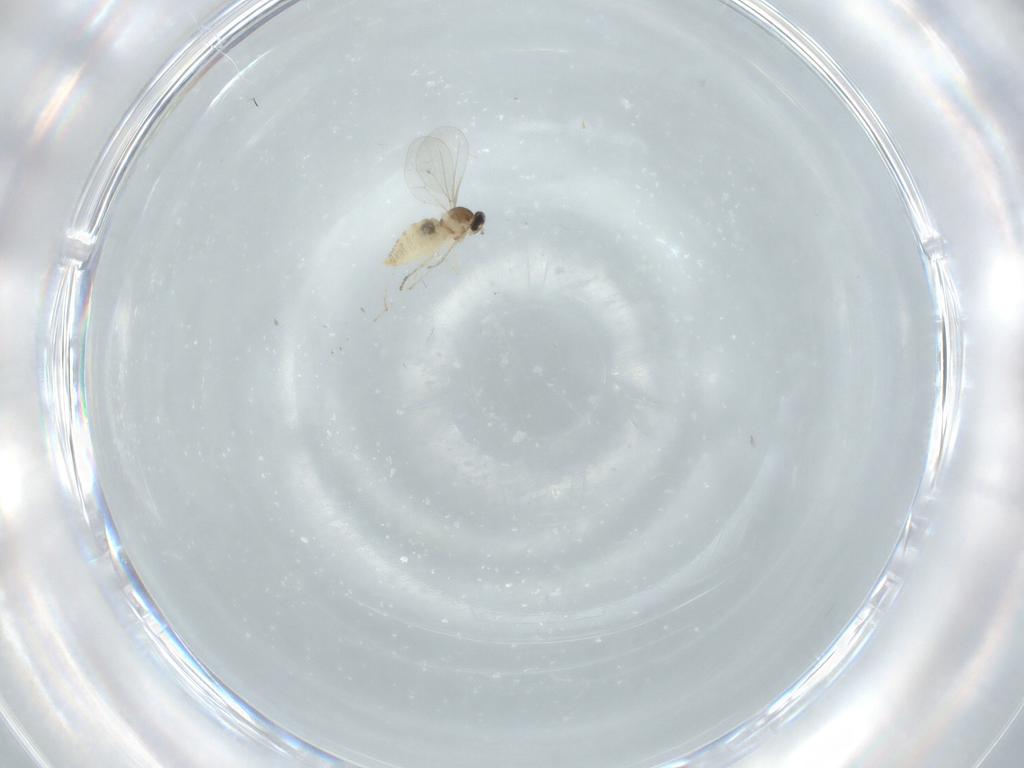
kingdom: Animalia
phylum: Arthropoda
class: Insecta
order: Diptera
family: Cecidomyiidae
